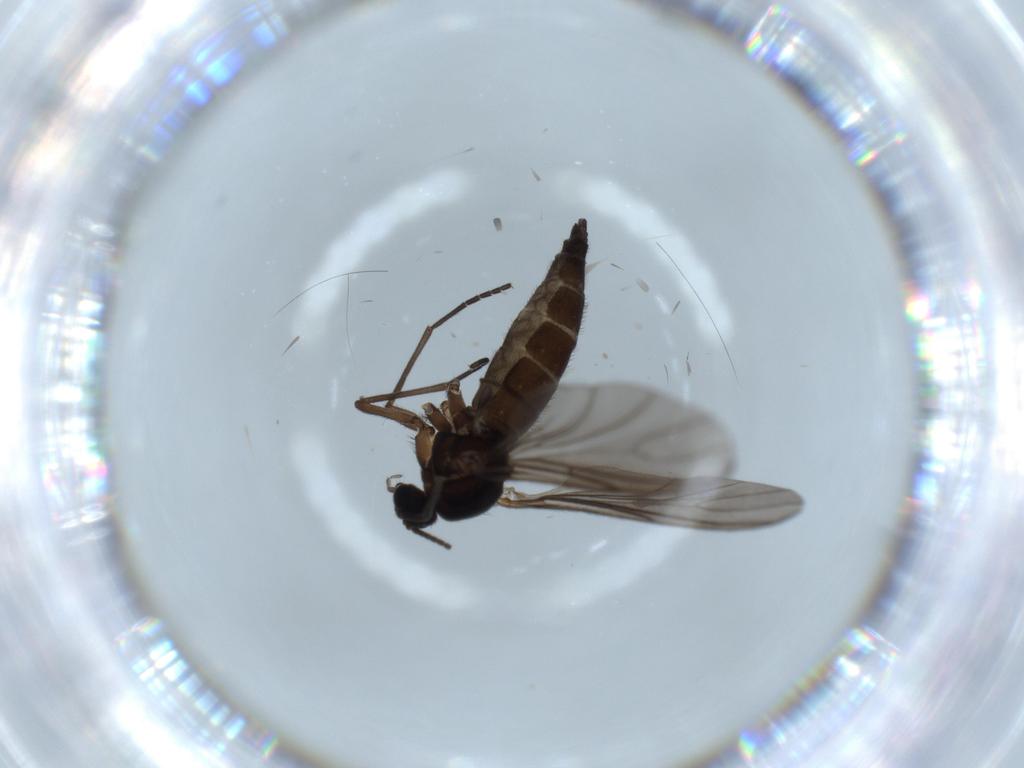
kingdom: Animalia
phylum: Arthropoda
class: Insecta
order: Diptera
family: Sciaridae
